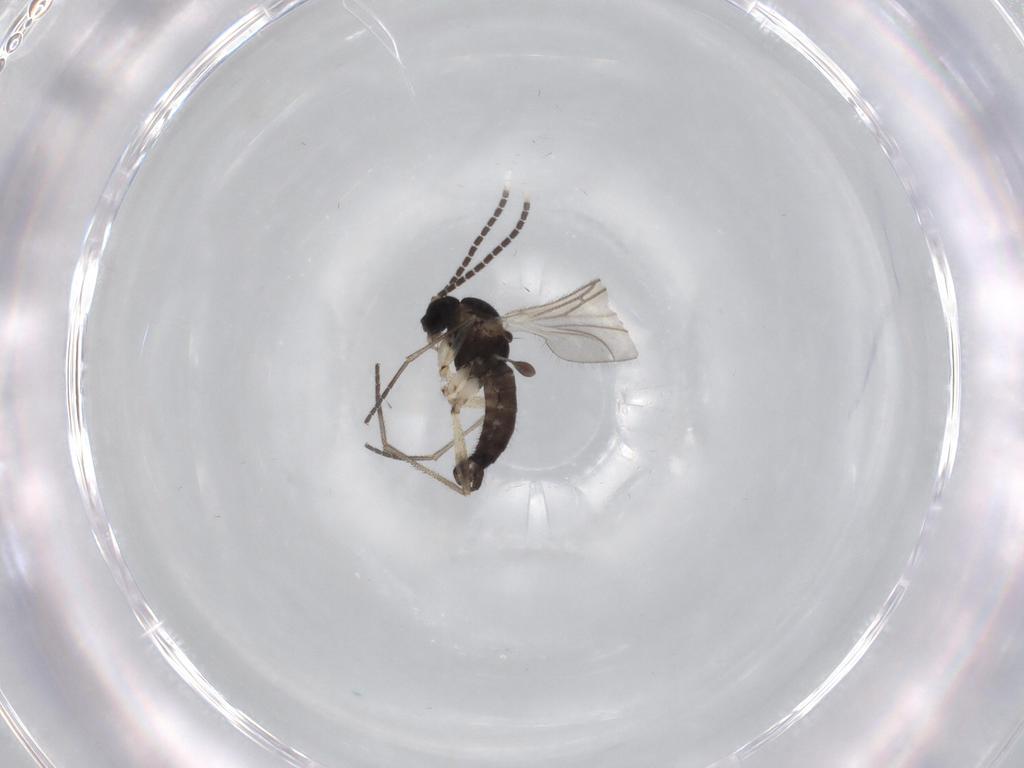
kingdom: Animalia
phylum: Arthropoda
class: Insecta
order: Diptera
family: Sciaridae
